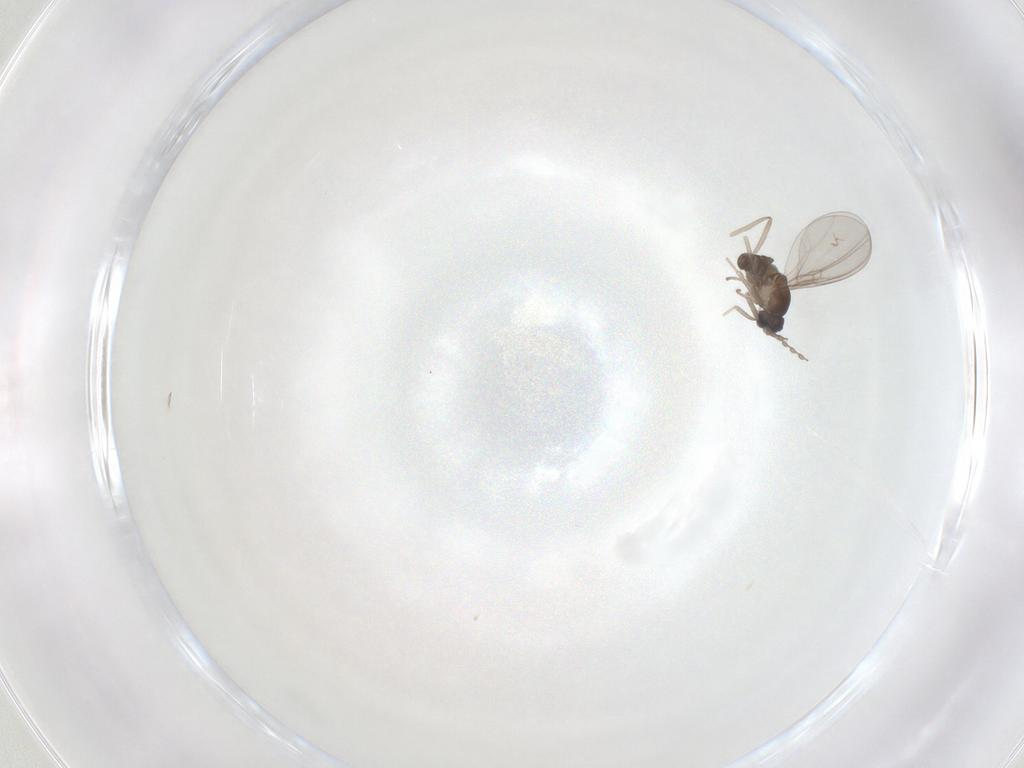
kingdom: Animalia
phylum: Arthropoda
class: Insecta
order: Diptera
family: Cecidomyiidae
